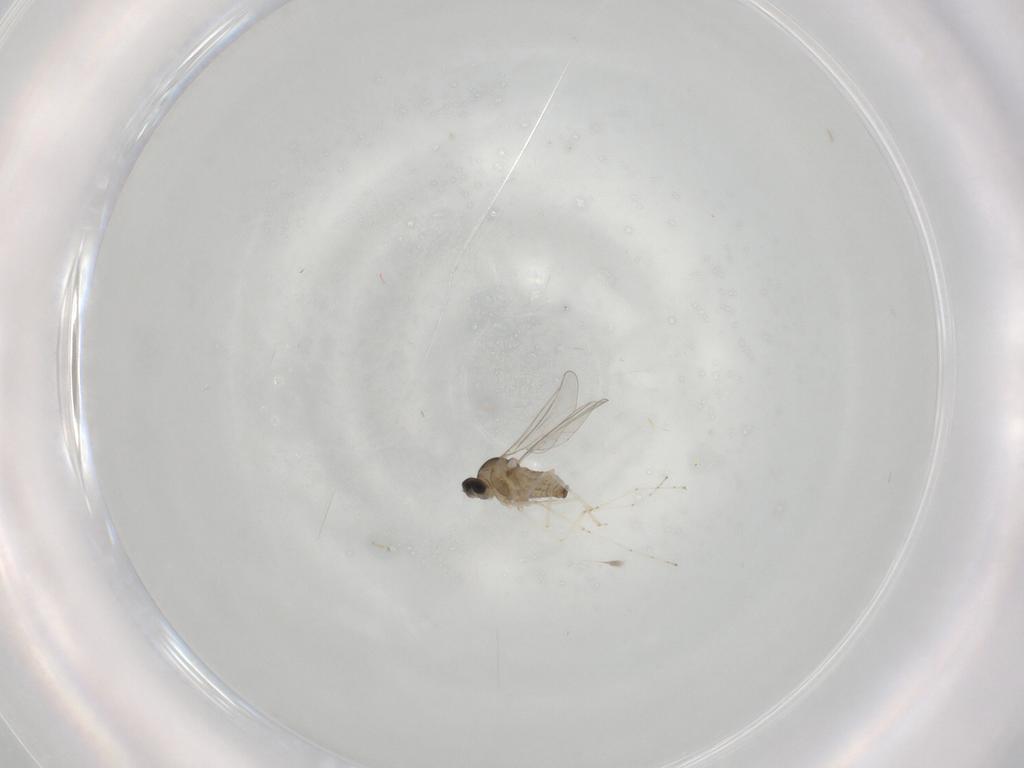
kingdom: Animalia
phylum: Arthropoda
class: Insecta
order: Diptera
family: Cecidomyiidae
